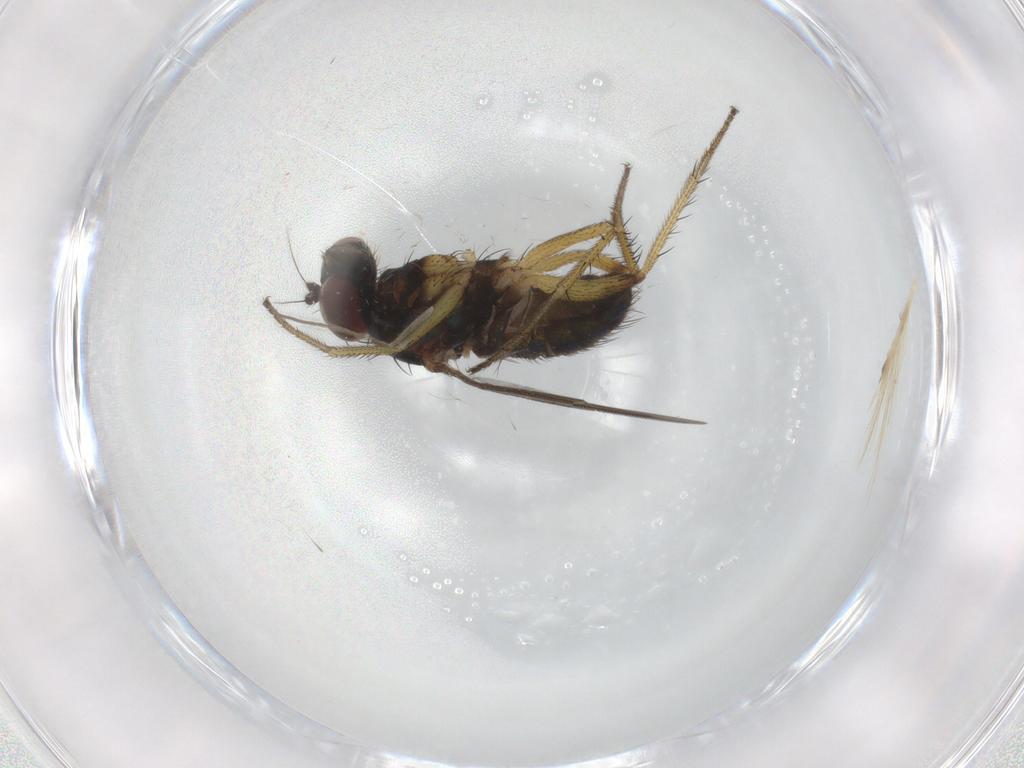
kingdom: Animalia
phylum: Arthropoda
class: Insecta
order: Diptera
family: Dolichopodidae
